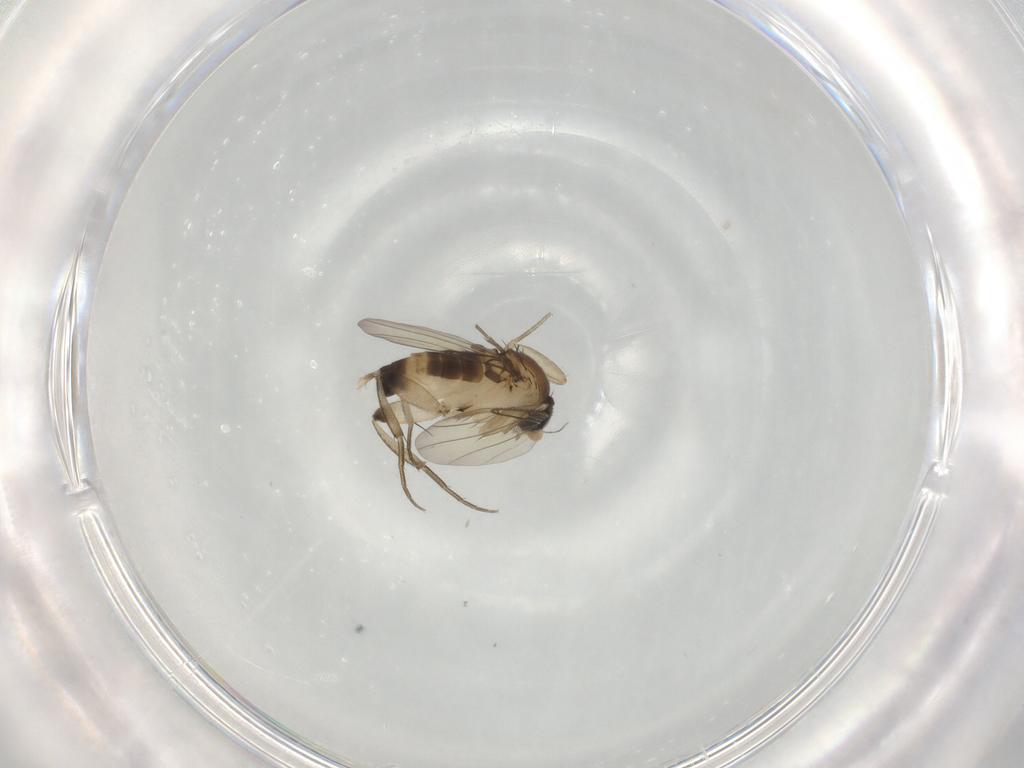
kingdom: Animalia
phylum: Arthropoda
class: Insecta
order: Diptera
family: Phoridae
